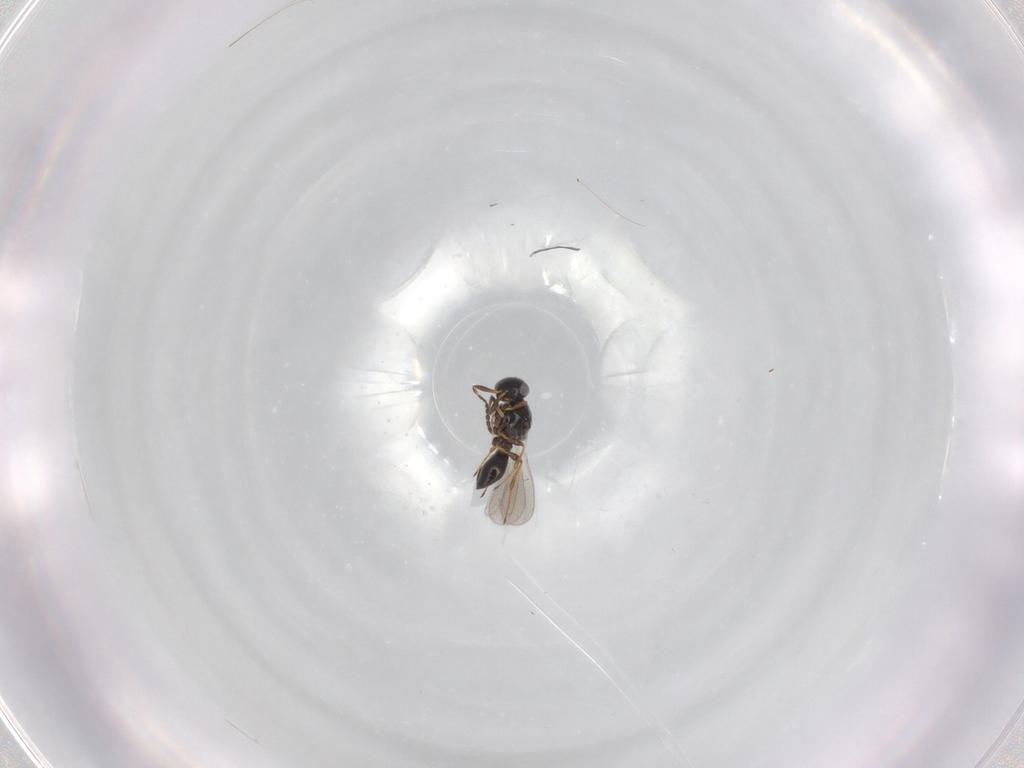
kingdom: Animalia
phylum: Arthropoda
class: Insecta
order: Hymenoptera
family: Platygastridae
